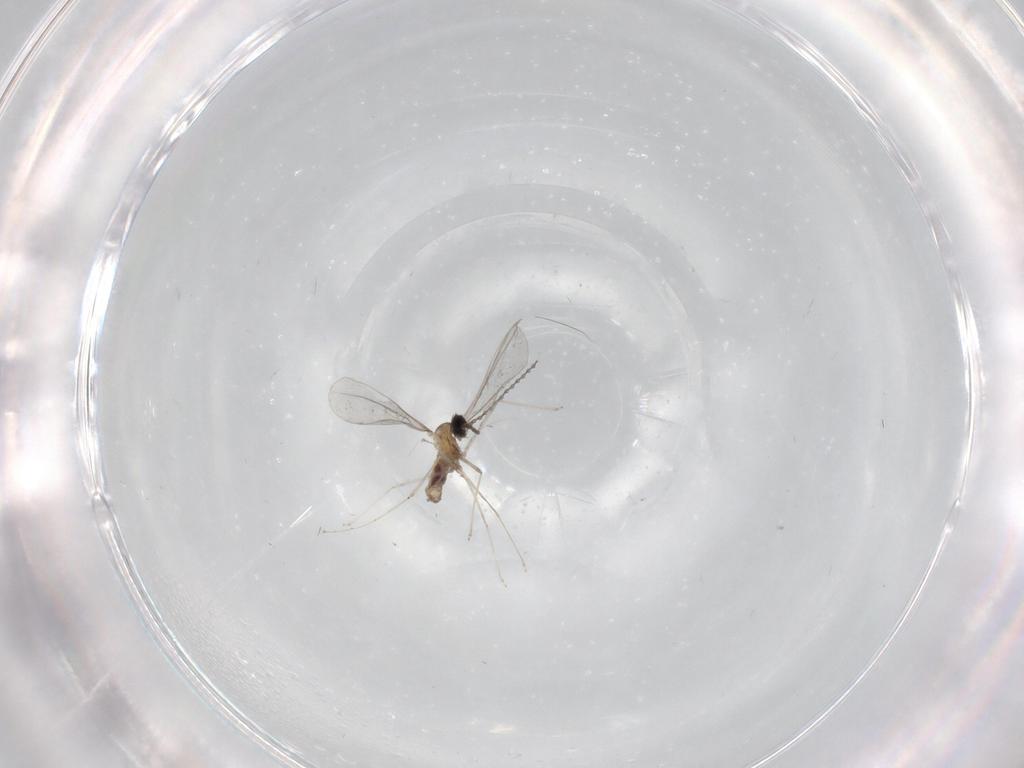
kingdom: Animalia
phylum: Arthropoda
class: Insecta
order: Diptera
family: Cecidomyiidae
